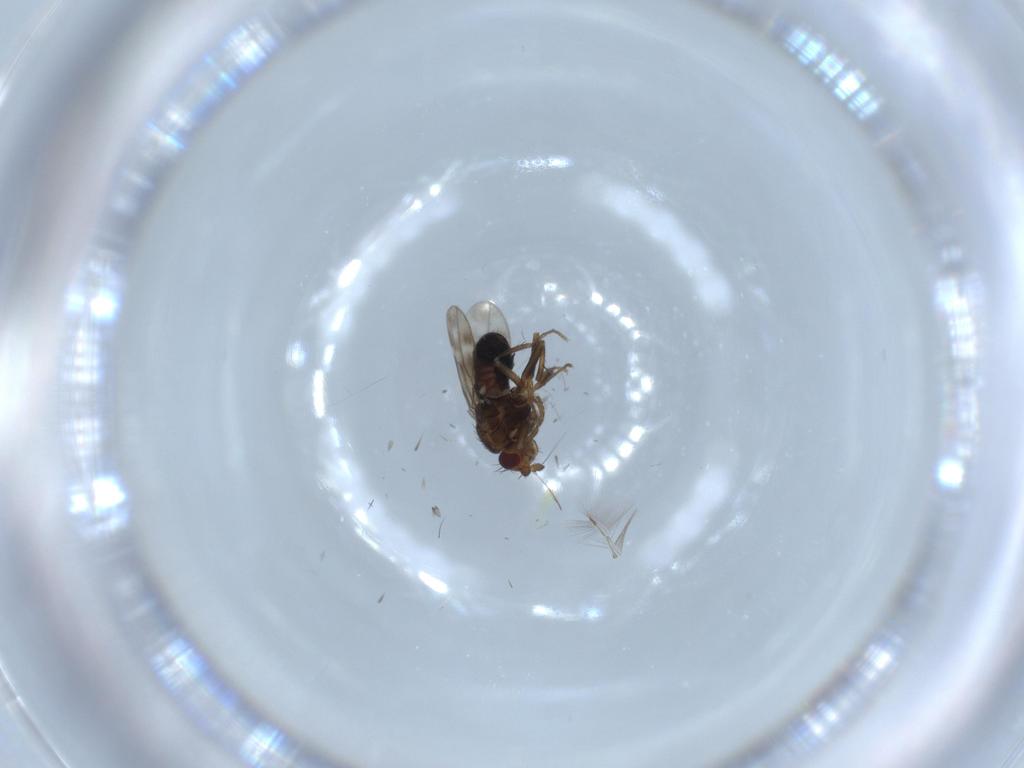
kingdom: Animalia
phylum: Arthropoda
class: Insecta
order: Diptera
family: Sphaeroceridae
